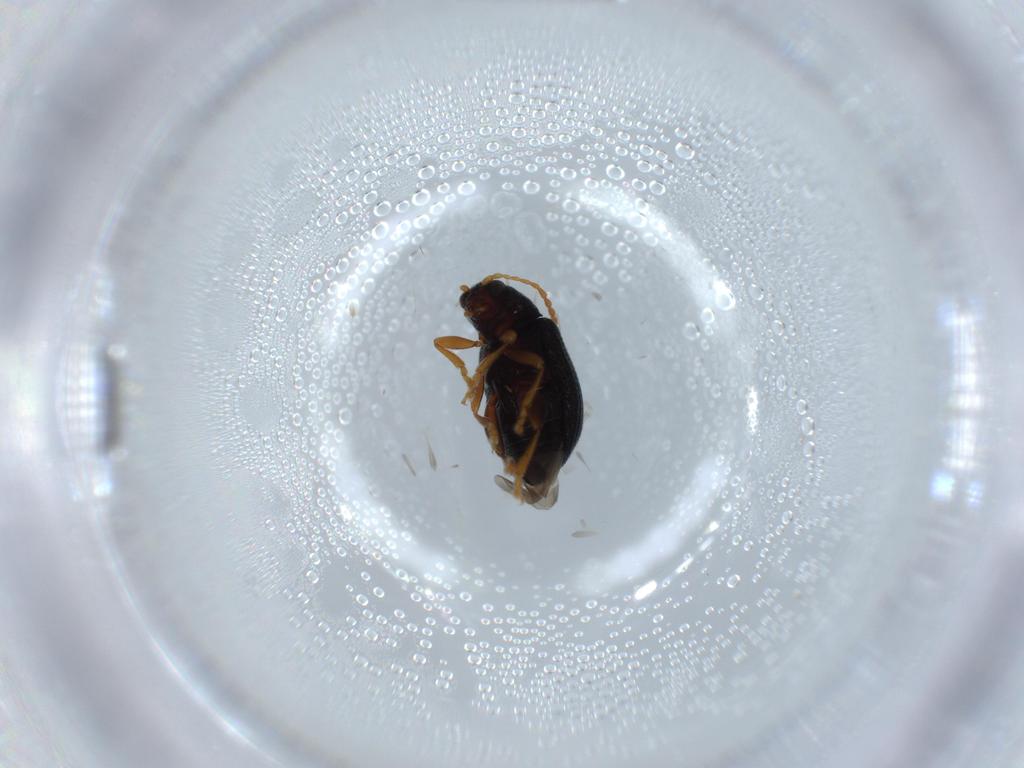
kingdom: Animalia
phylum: Arthropoda
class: Insecta
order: Coleoptera
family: Chrysomelidae
